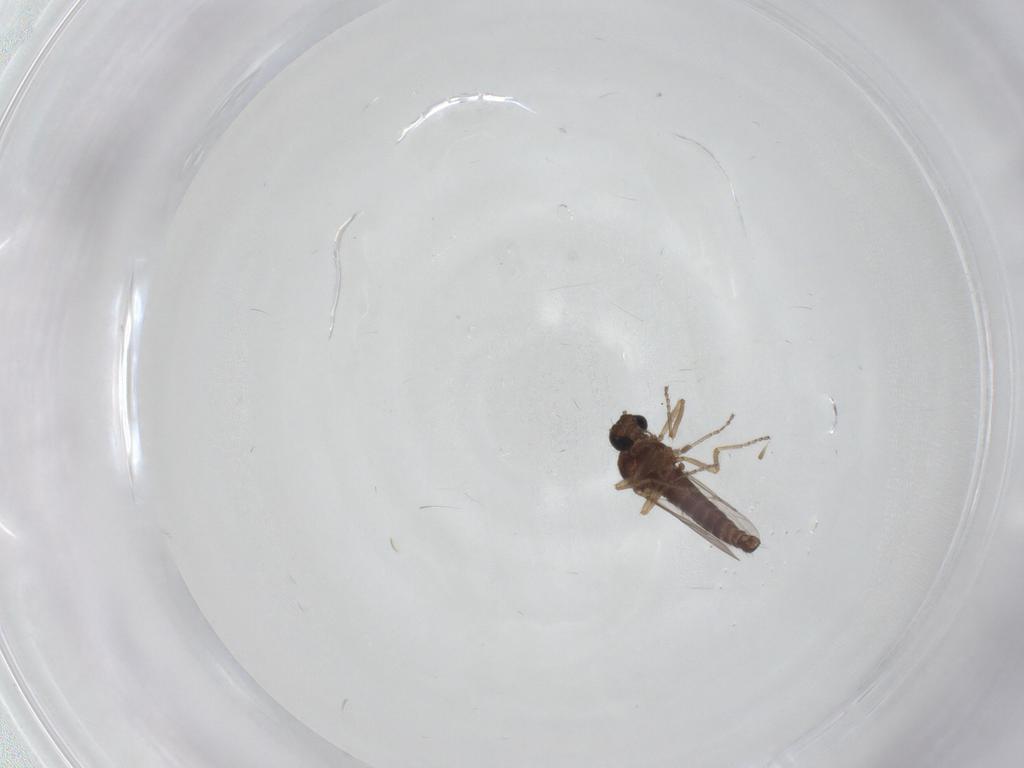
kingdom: Animalia
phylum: Arthropoda
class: Insecta
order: Diptera
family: Ceratopogonidae
